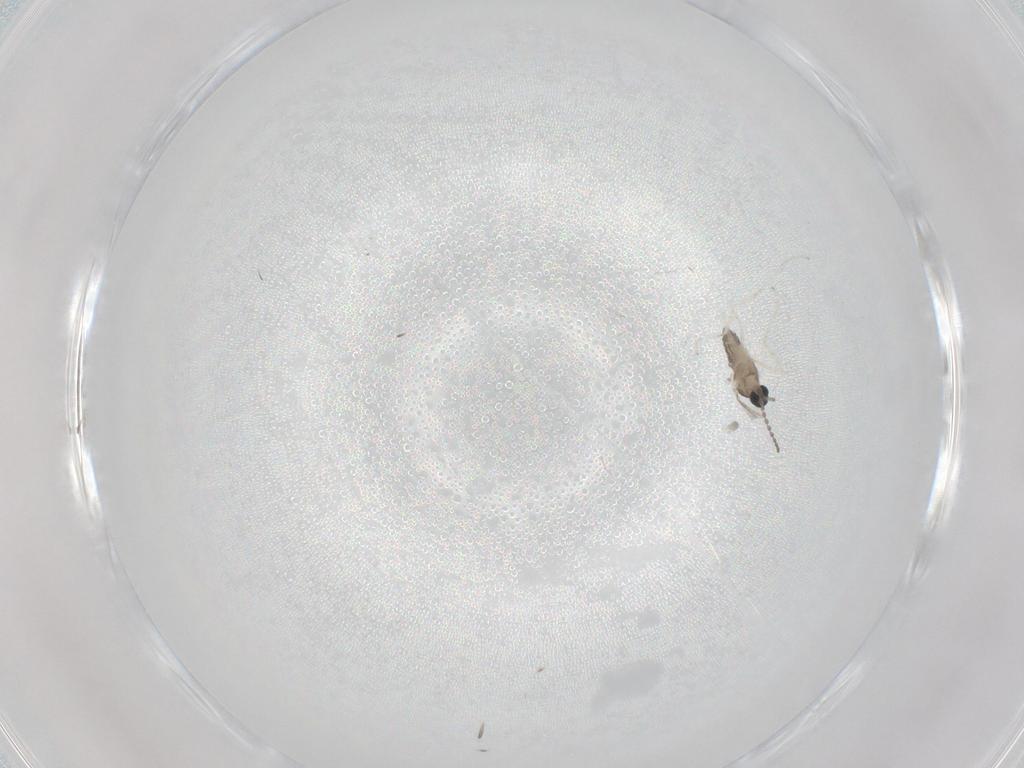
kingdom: Animalia
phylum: Arthropoda
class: Insecta
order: Diptera
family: Cecidomyiidae
